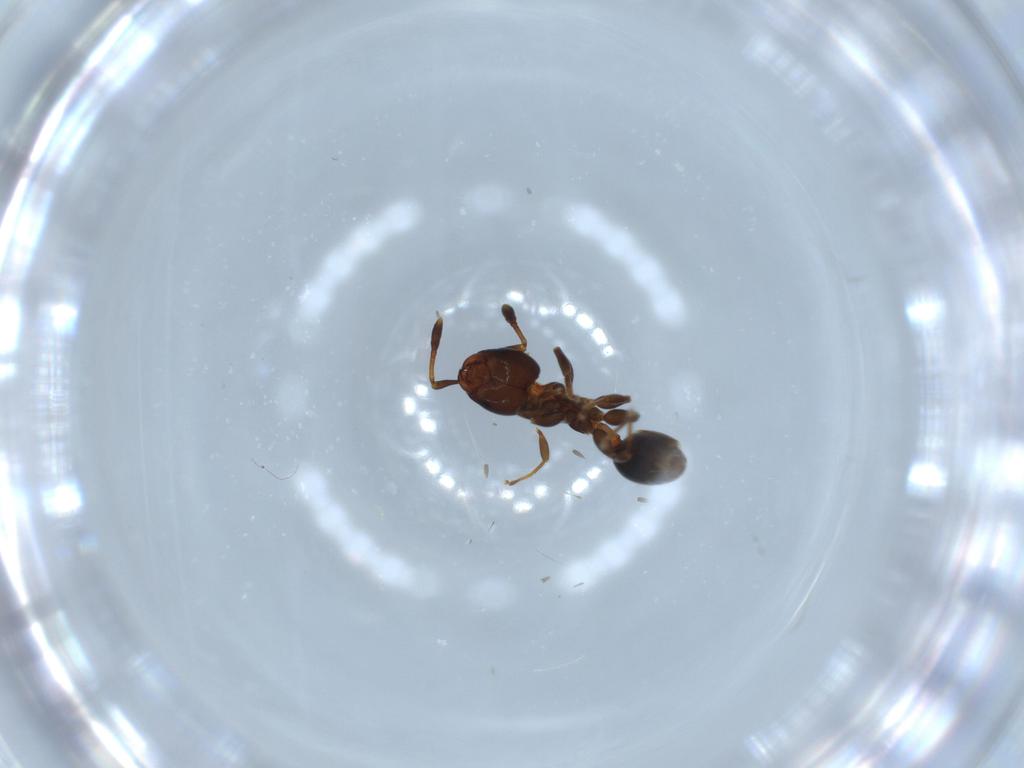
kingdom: Animalia
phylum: Arthropoda
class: Insecta
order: Hymenoptera
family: Formicidae
